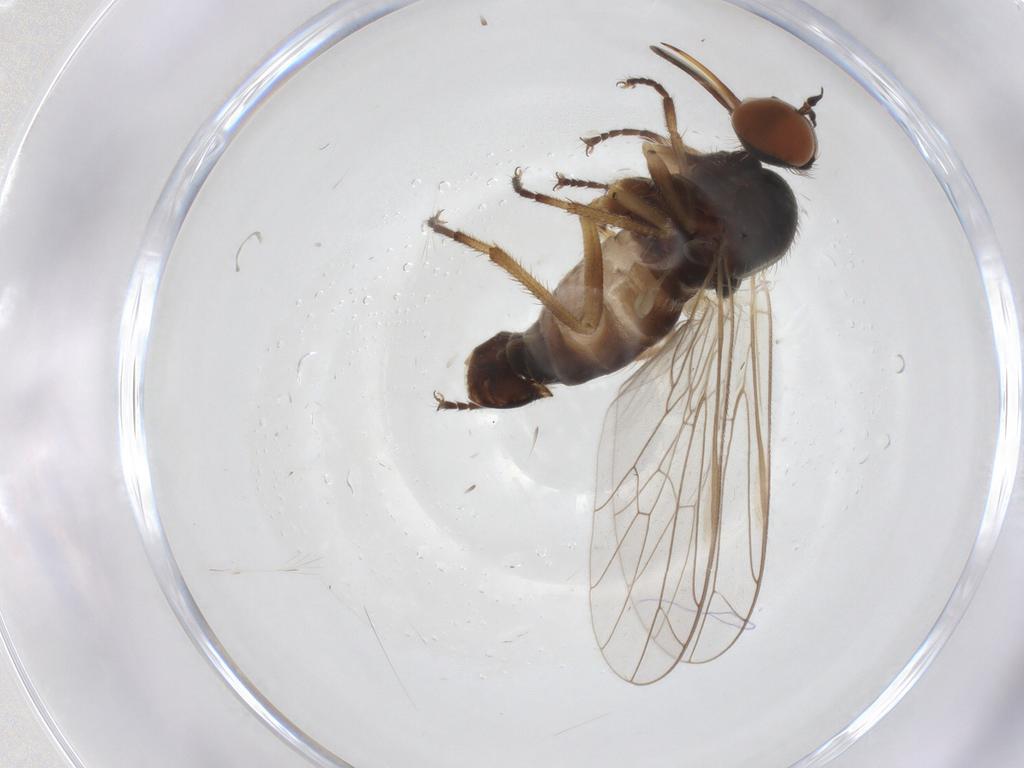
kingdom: Animalia
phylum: Arthropoda
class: Insecta
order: Diptera
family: Empididae
